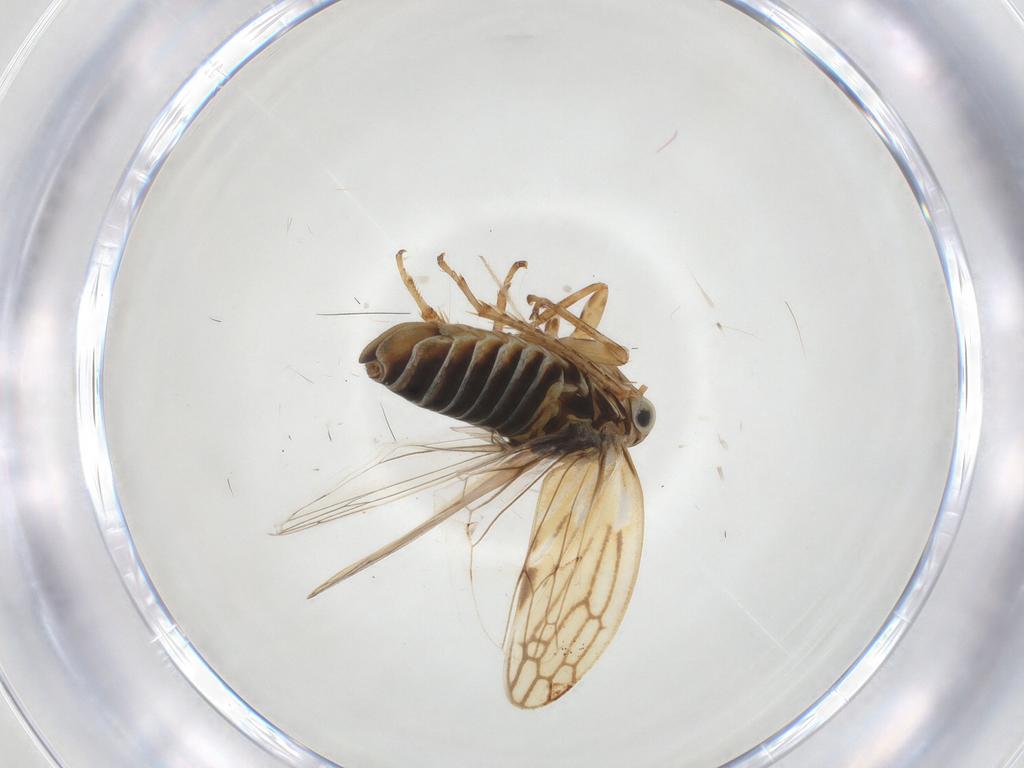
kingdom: Animalia
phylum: Arthropoda
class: Insecta
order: Hemiptera
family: Cicadellidae
